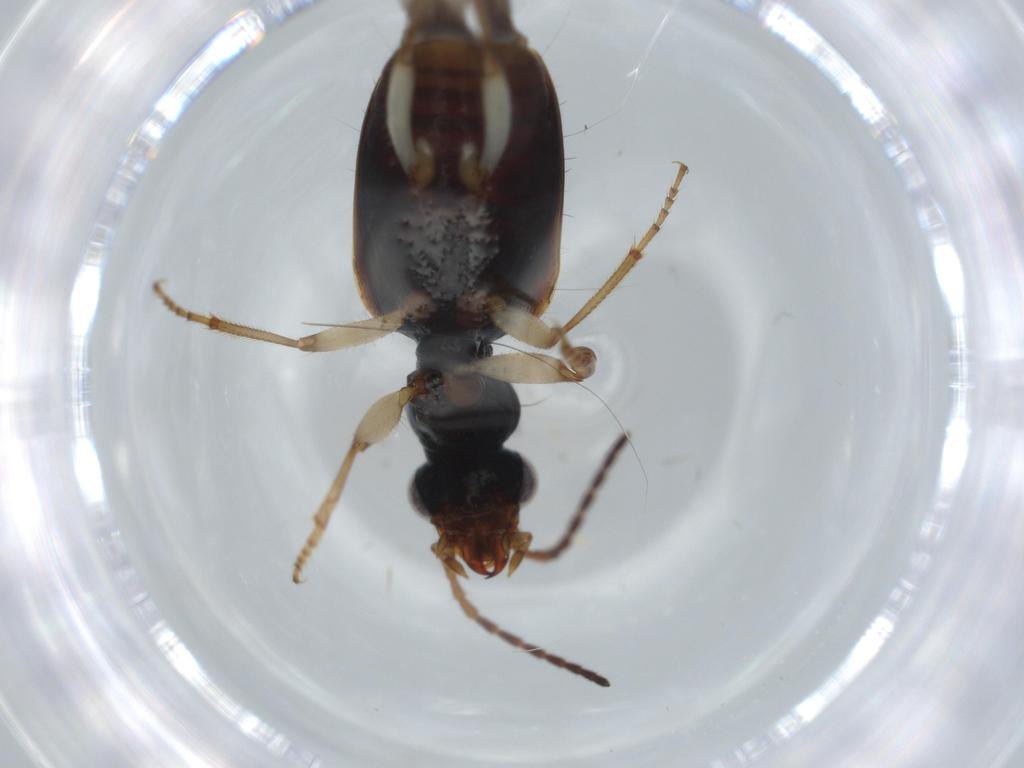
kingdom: Animalia
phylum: Arthropoda
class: Insecta
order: Coleoptera
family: Carabidae
